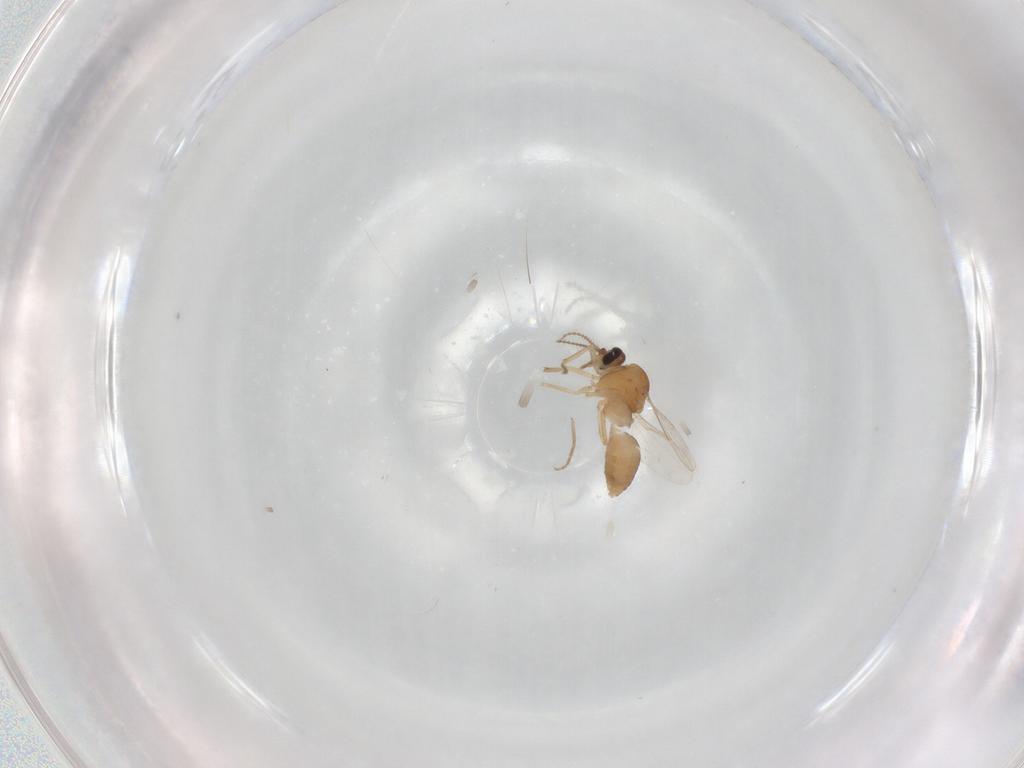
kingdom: Animalia
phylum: Arthropoda
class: Insecta
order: Diptera
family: Ceratopogonidae
